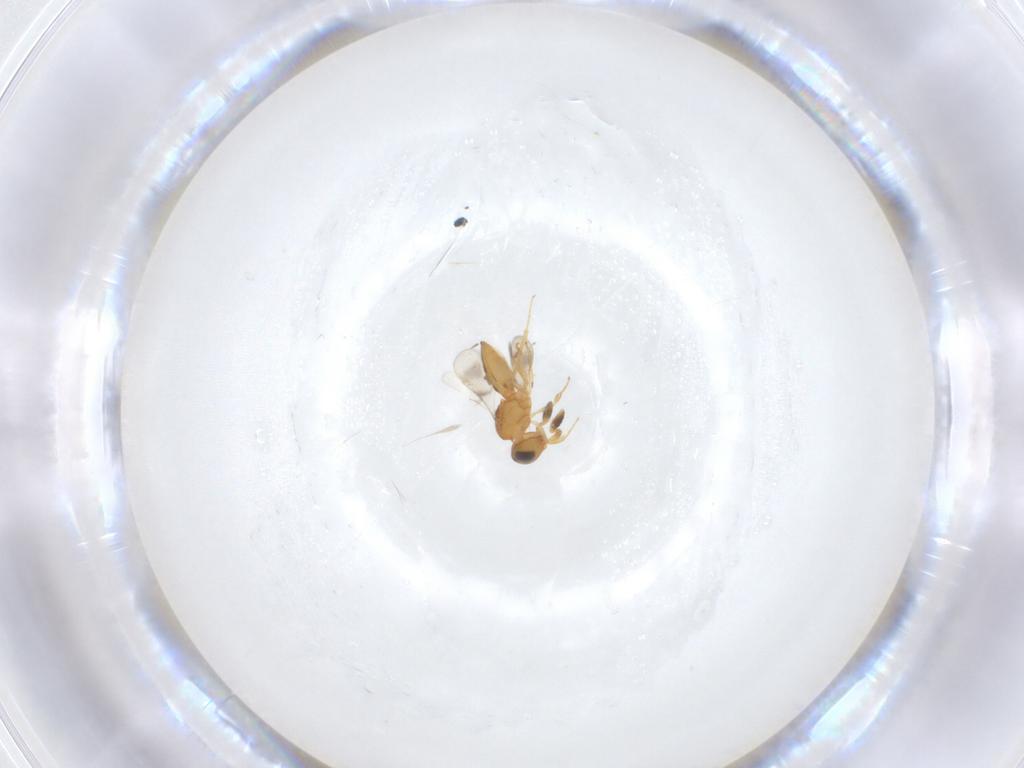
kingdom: Animalia
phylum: Arthropoda
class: Insecta
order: Hymenoptera
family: Scelionidae
